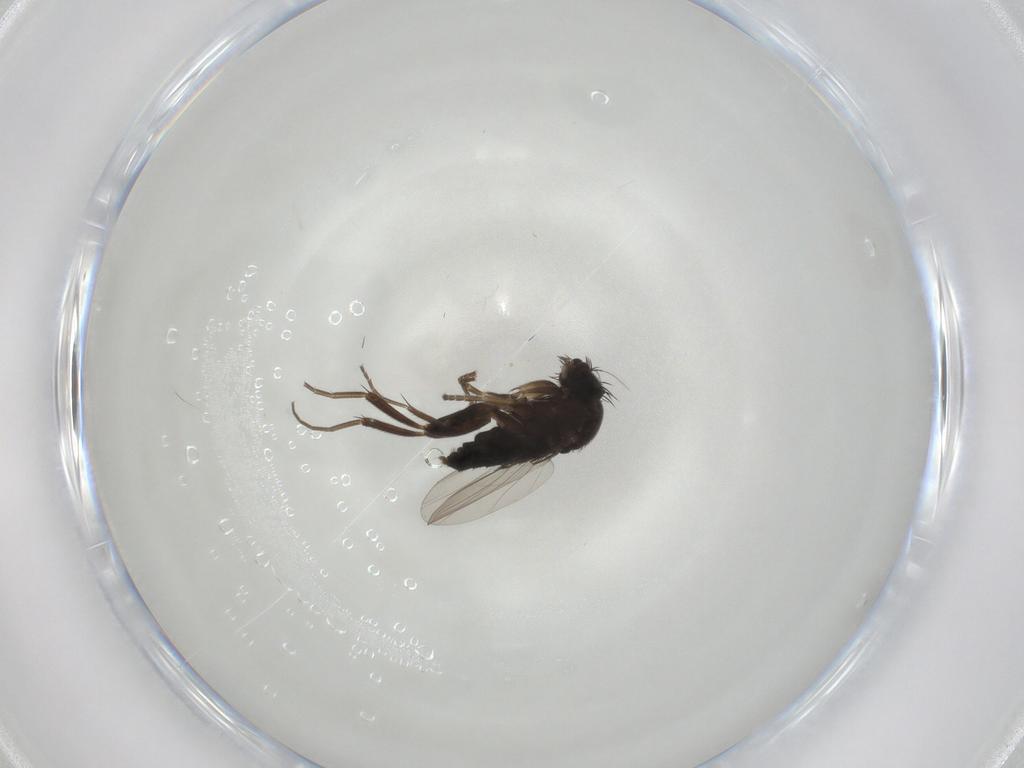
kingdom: Animalia
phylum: Arthropoda
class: Insecta
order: Diptera
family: Phoridae
